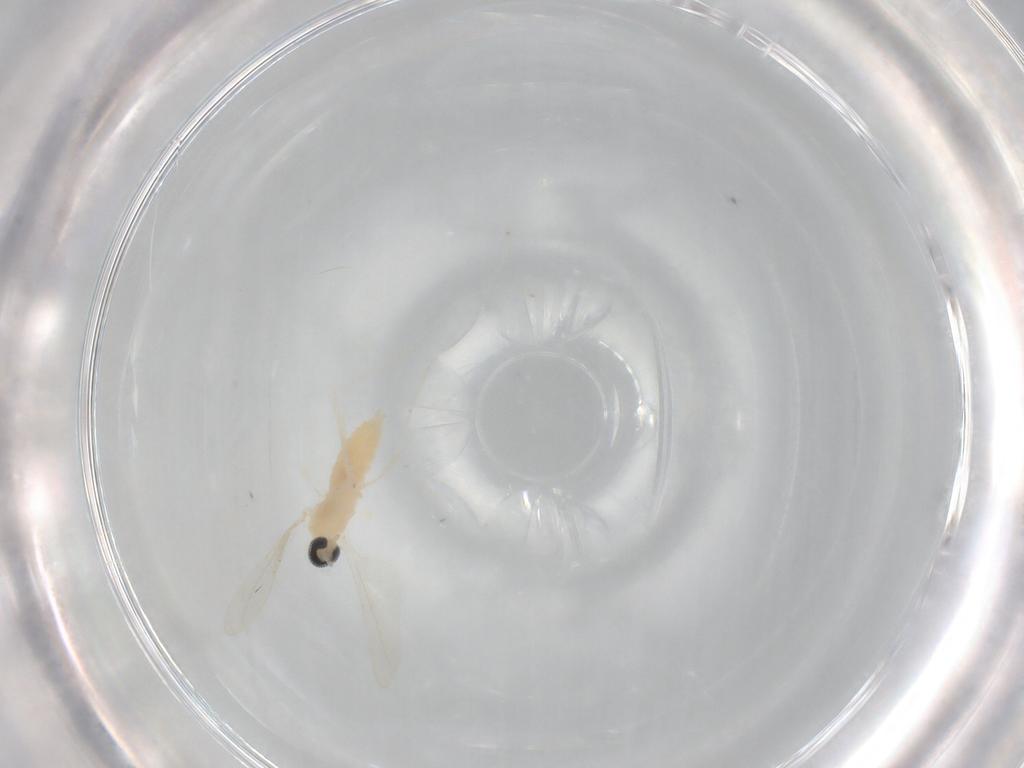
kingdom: Animalia
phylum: Arthropoda
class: Insecta
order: Diptera
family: Cecidomyiidae
